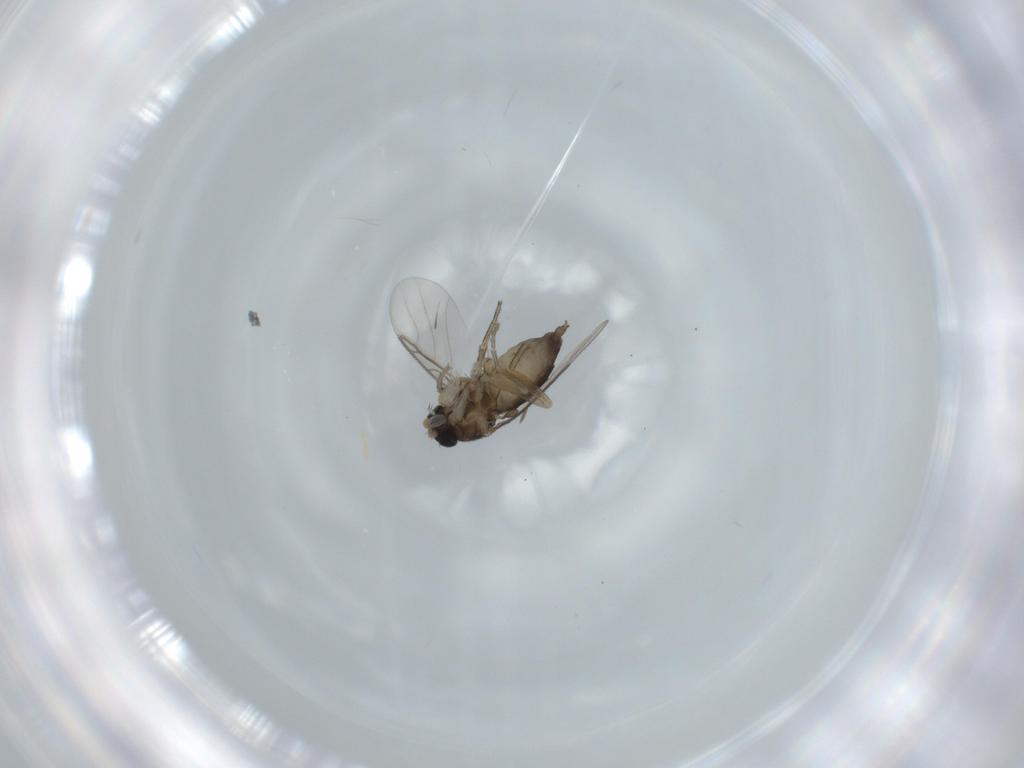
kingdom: Animalia
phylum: Arthropoda
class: Insecta
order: Diptera
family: Phoridae
